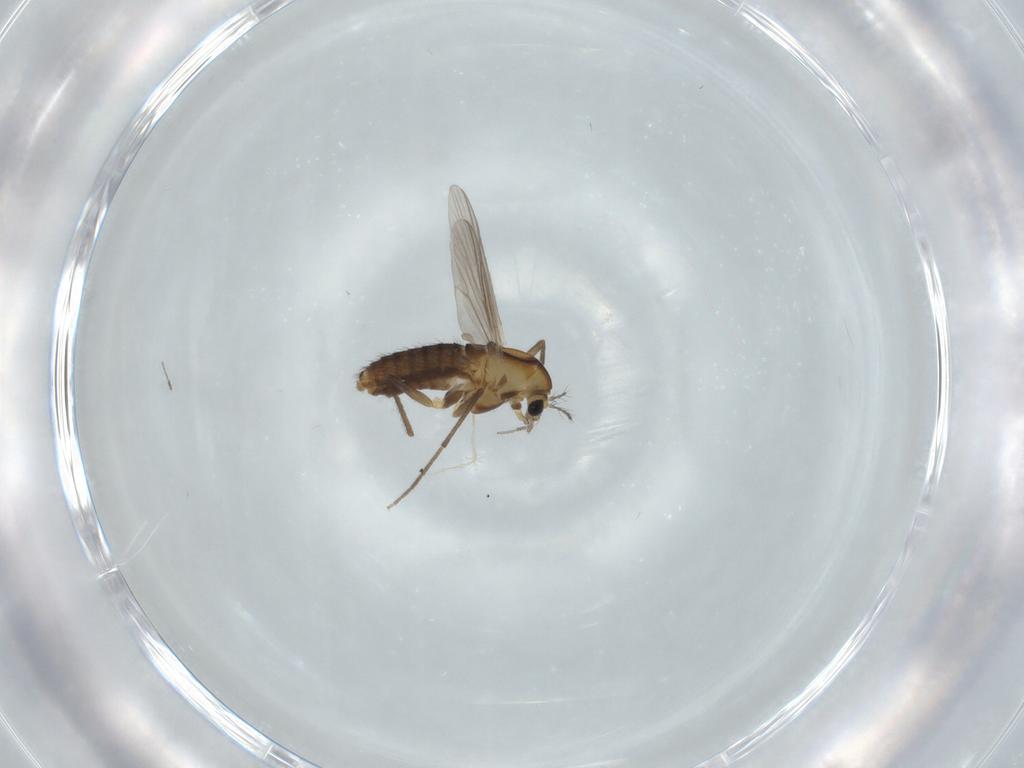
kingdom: Animalia
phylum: Arthropoda
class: Insecta
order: Diptera
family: Chironomidae
